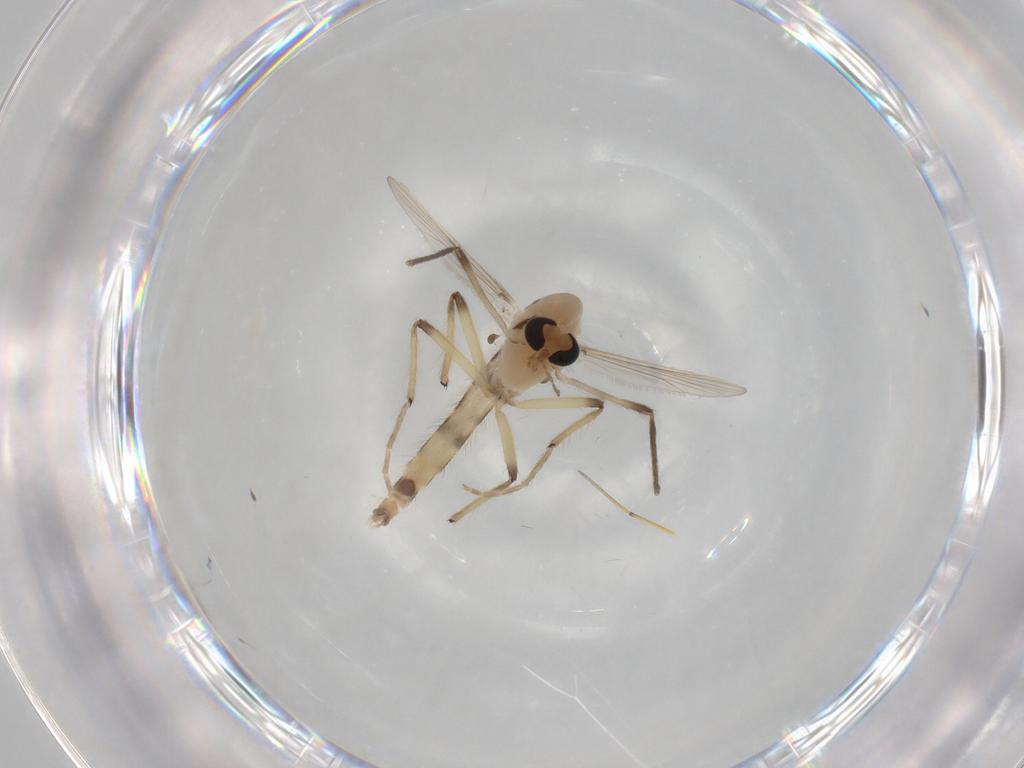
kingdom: Animalia
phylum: Arthropoda
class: Insecta
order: Diptera
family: Chironomidae
